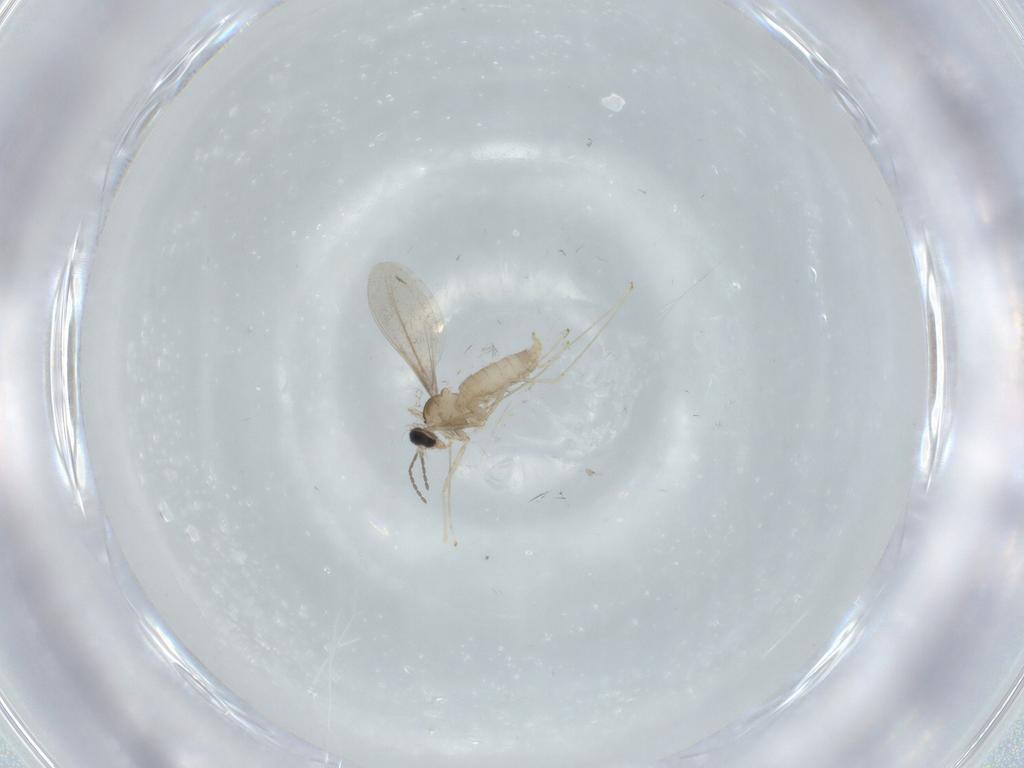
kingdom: Animalia
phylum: Arthropoda
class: Insecta
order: Diptera
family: Cecidomyiidae
